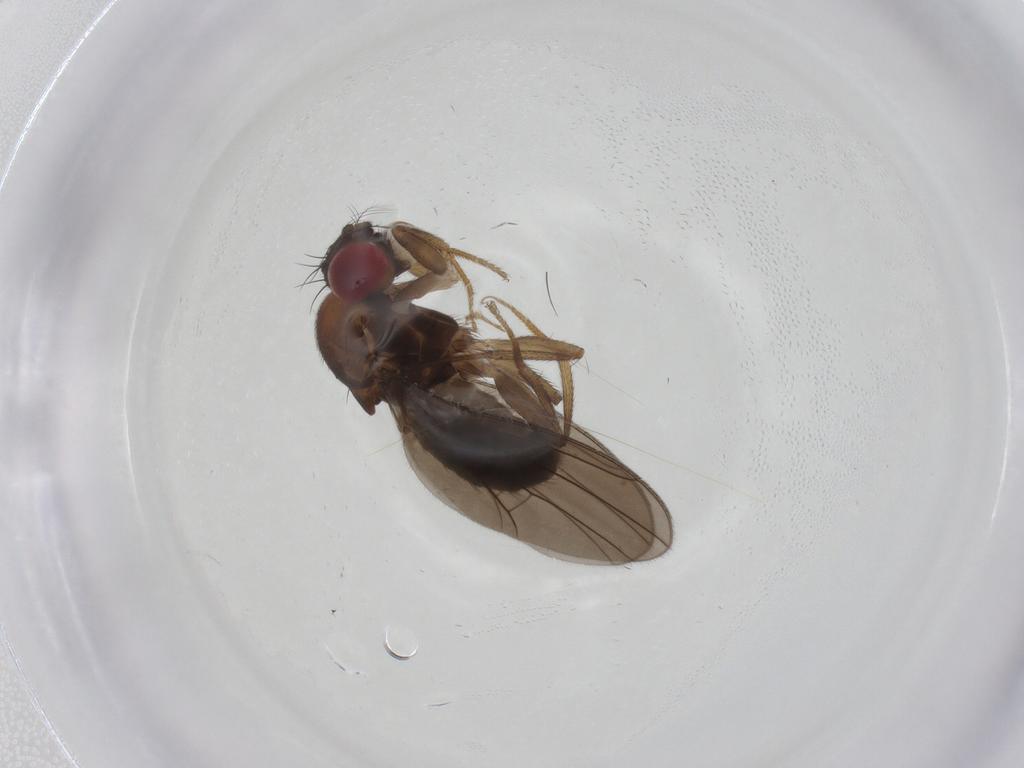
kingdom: Animalia
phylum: Arthropoda
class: Insecta
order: Diptera
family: Drosophilidae
